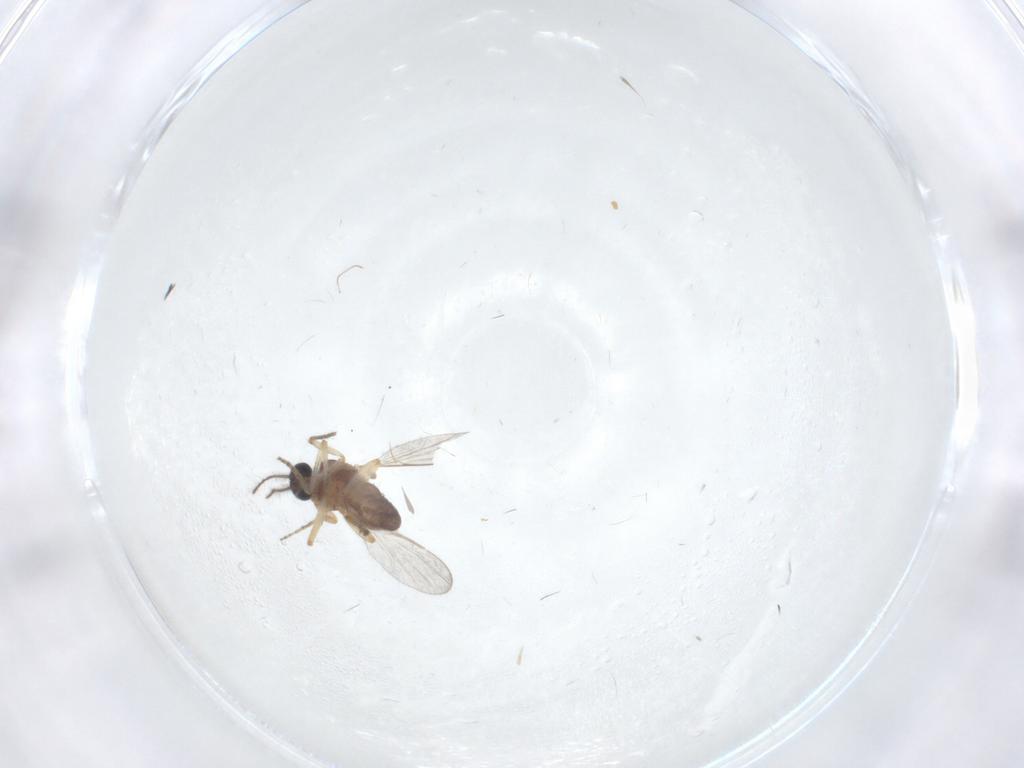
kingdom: Animalia
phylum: Arthropoda
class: Insecta
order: Diptera
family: Ceratopogonidae
